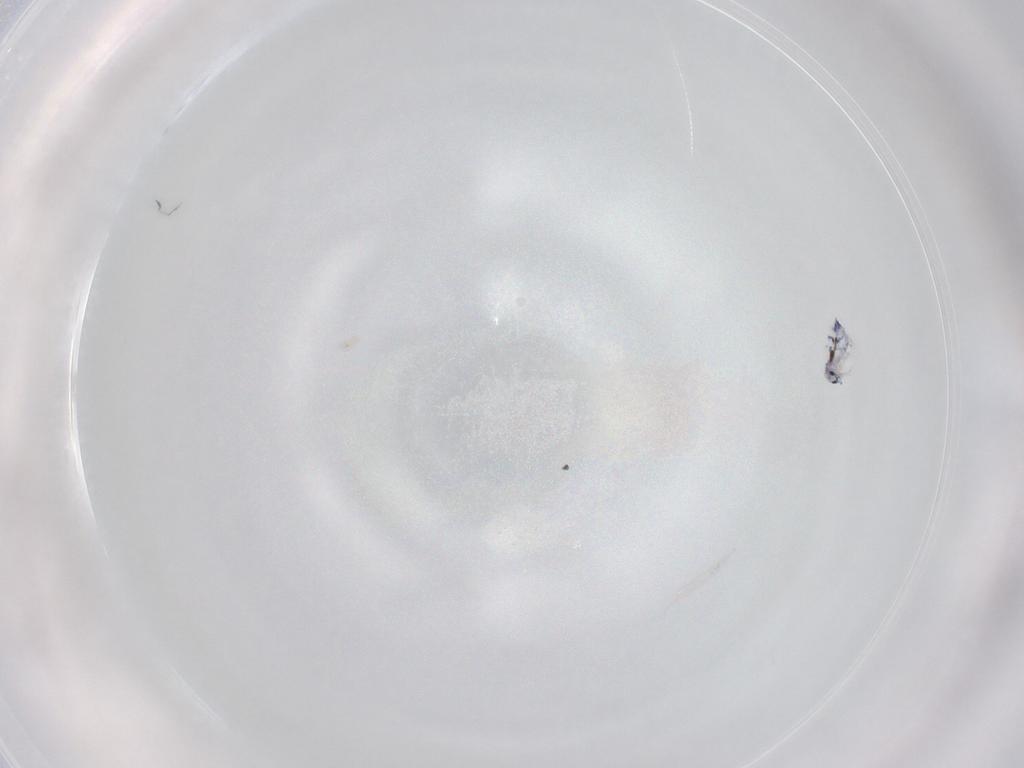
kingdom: Animalia
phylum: Arthropoda
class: Collembola
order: Entomobryomorpha
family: Entomobryidae
